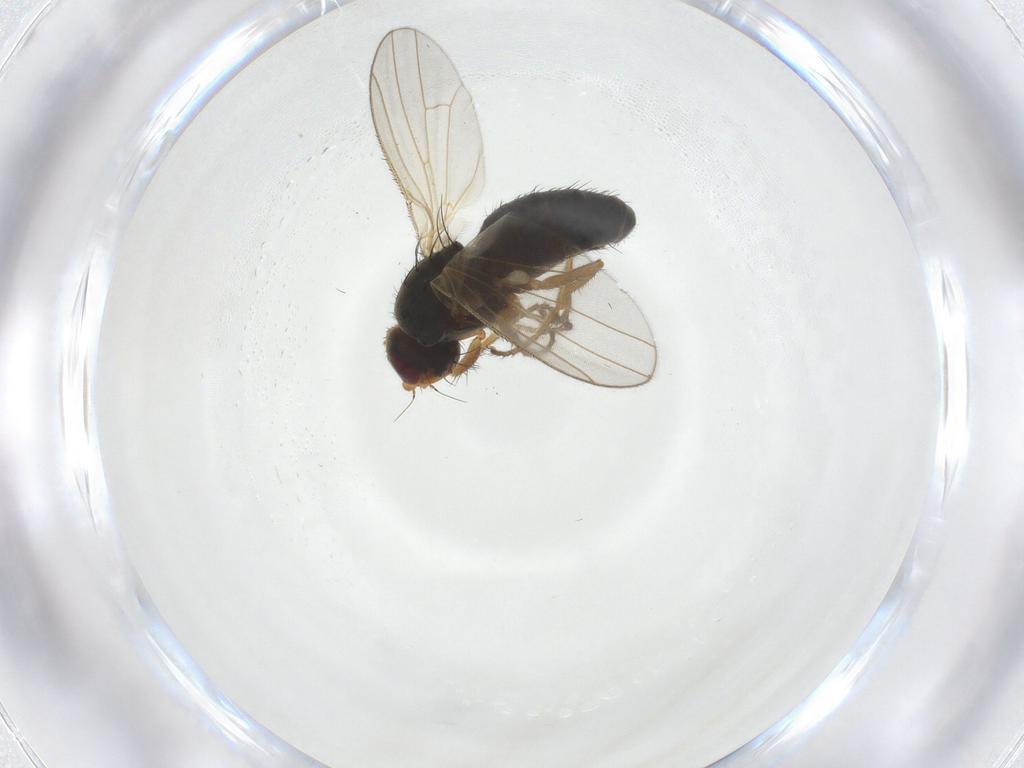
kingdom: Animalia
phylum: Arthropoda
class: Insecta
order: Diptera
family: Heleomyzidae
